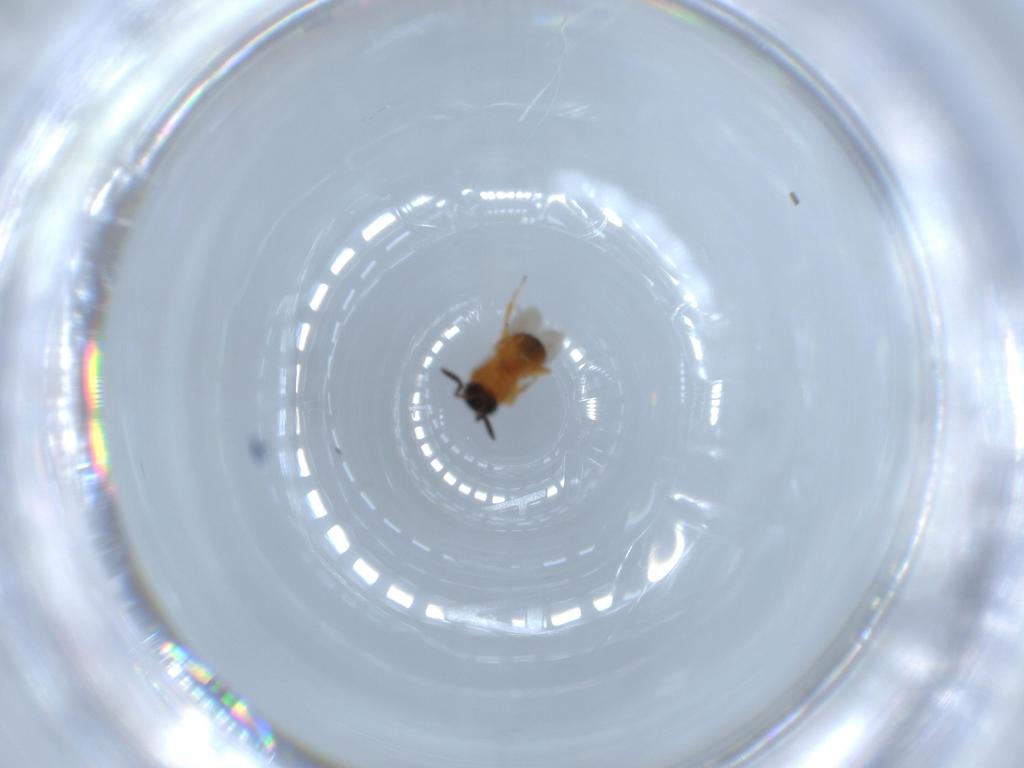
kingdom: Animalia
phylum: Arthropoda
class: Insecta
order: Hymenoptera
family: Scelionidae
